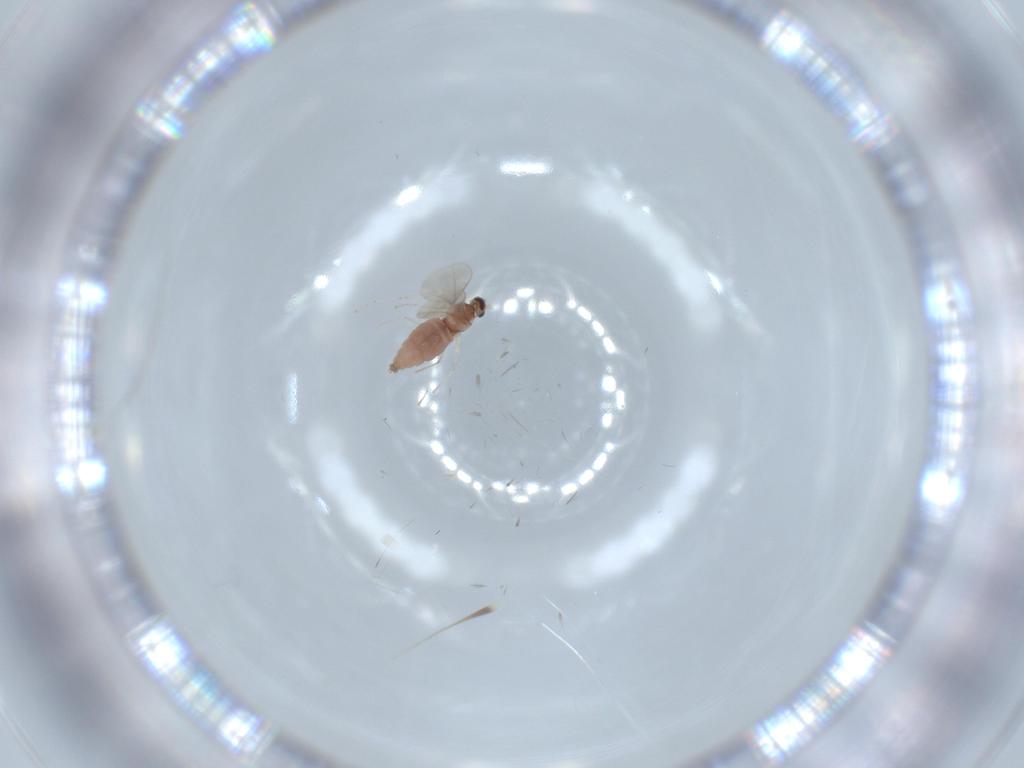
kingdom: Animalia
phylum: Arthropoda
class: Insecta
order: Diptera
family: Cecidomyiidae
